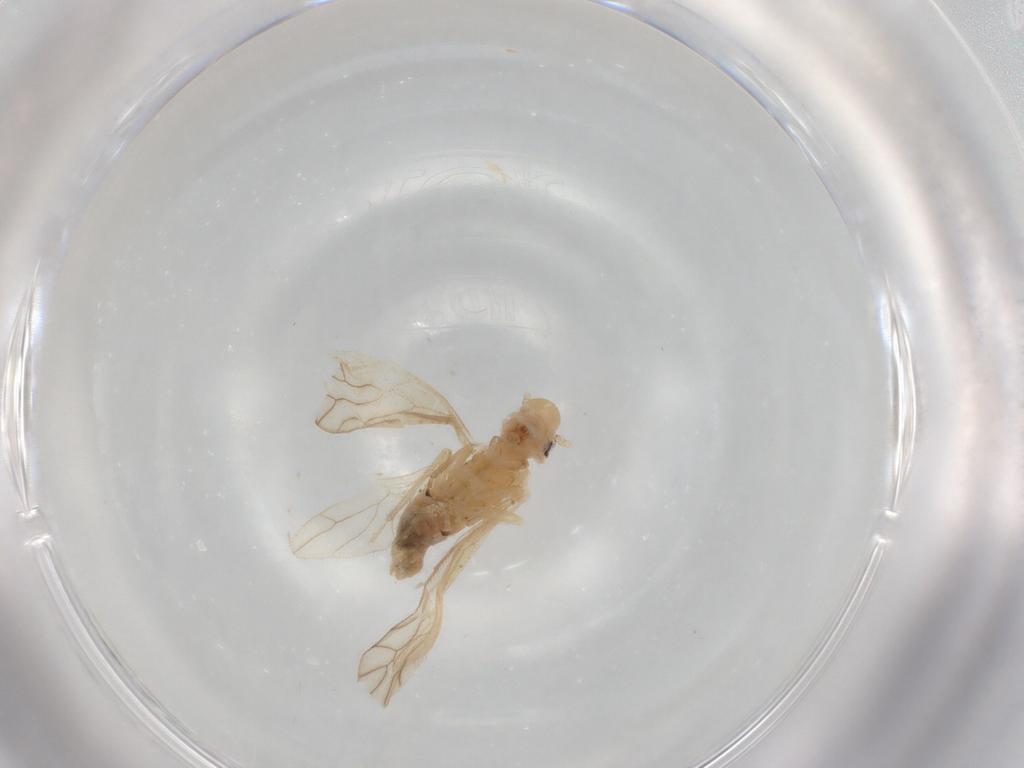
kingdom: Animalia
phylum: Arthropoda
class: Insecta
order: Psocodea
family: Caeciliusidae
